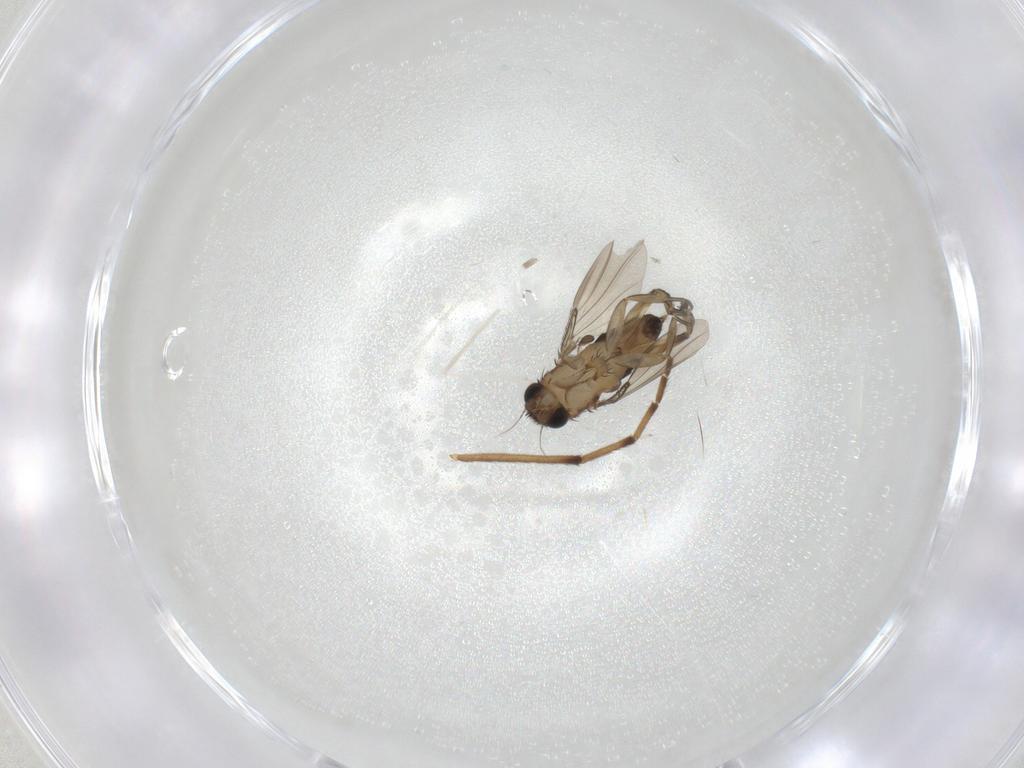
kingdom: Animalia
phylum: Arthropoda
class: Insecta
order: Diptera
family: Phoridae
